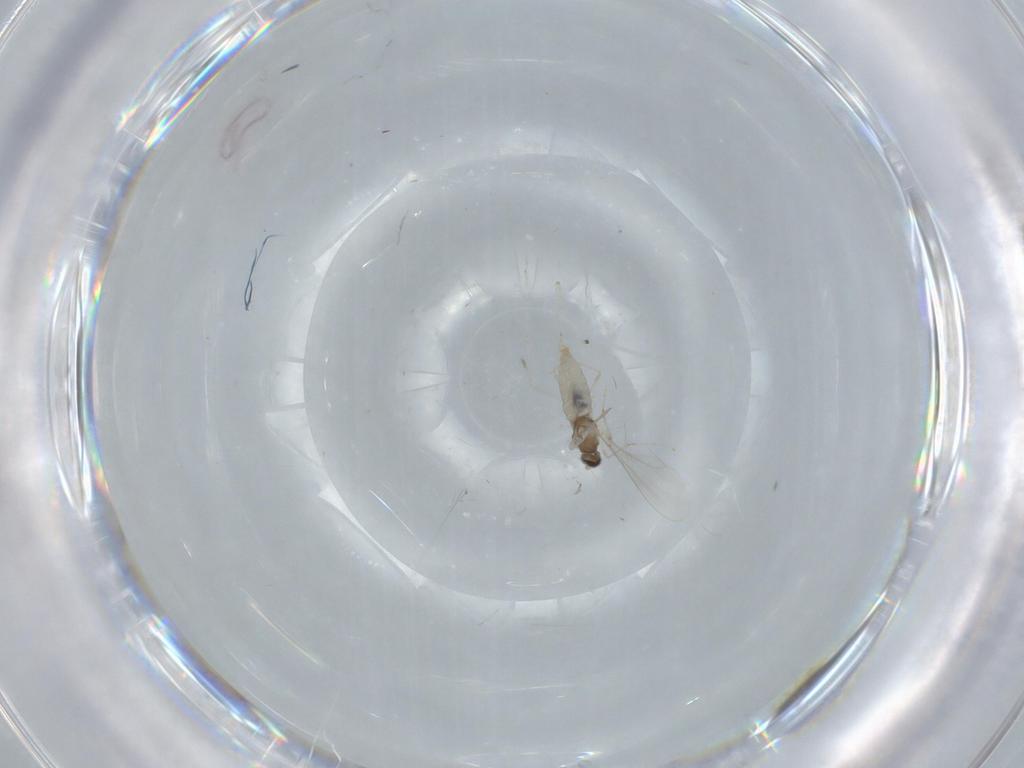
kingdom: Animalia
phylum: Arthropoda
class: Insecta
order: Diptera
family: Cecidomyiidae
